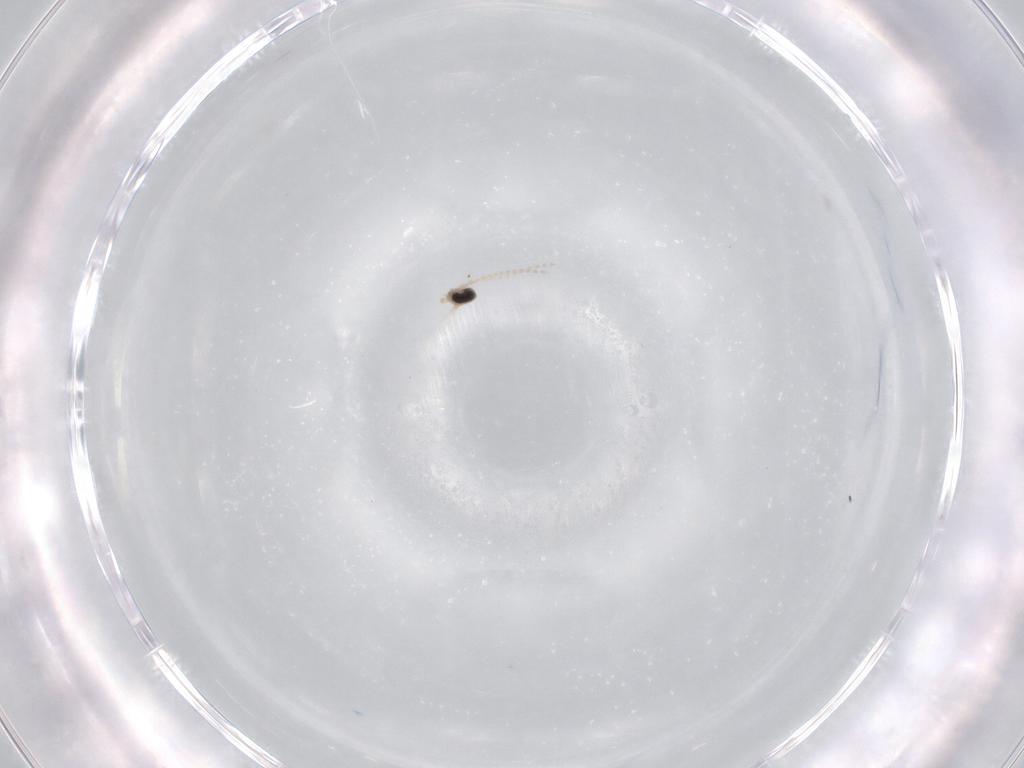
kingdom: Animalia
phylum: Arthropoda
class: Insecta
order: Diptera
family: Cecidomyiidae
